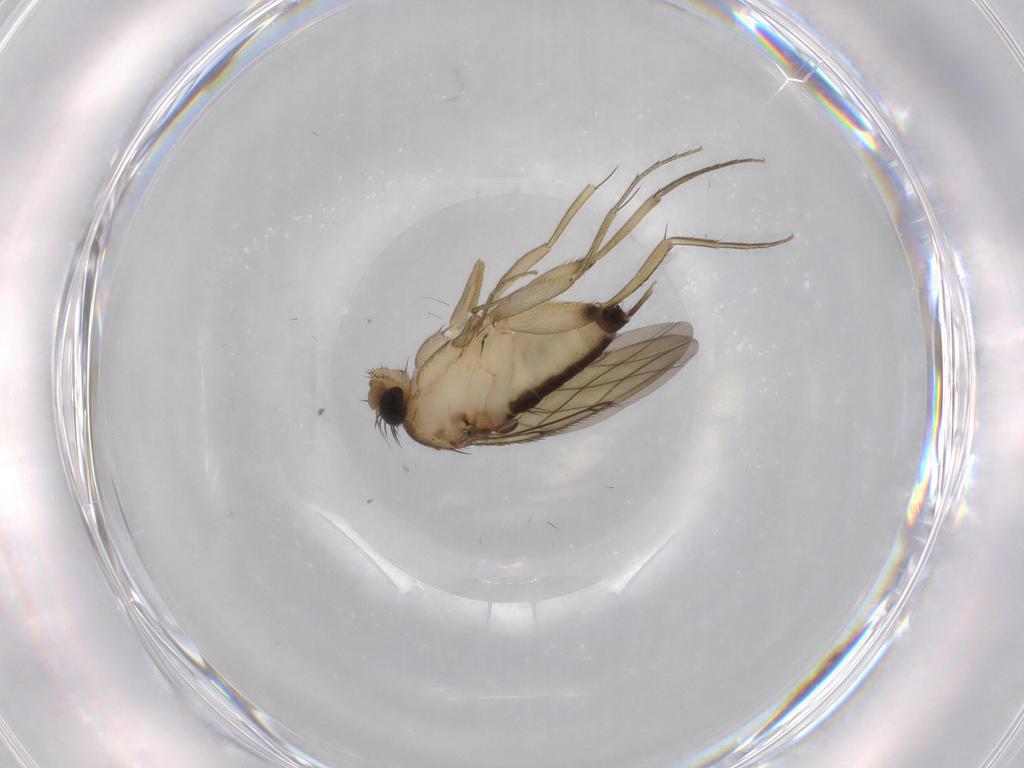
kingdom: Animalia
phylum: Arthropoda
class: Insecta
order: Diptera
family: Phoridae
